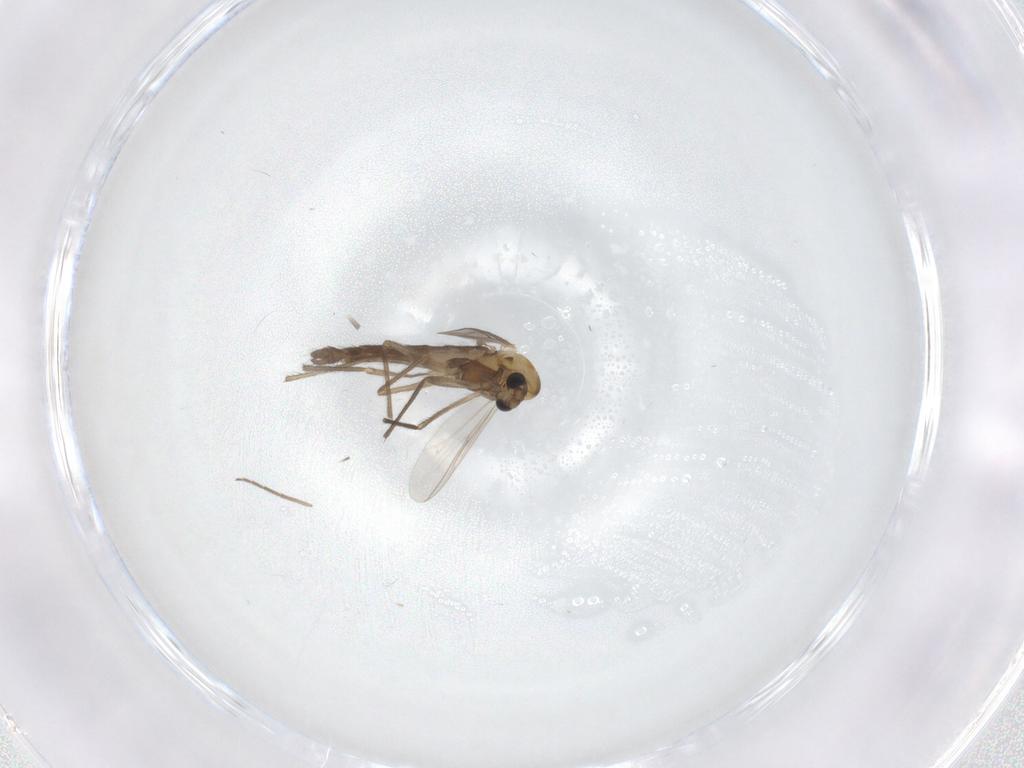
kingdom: Animalia
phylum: Arthropoda
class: Insecta
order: Diptera
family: Chironomidae
